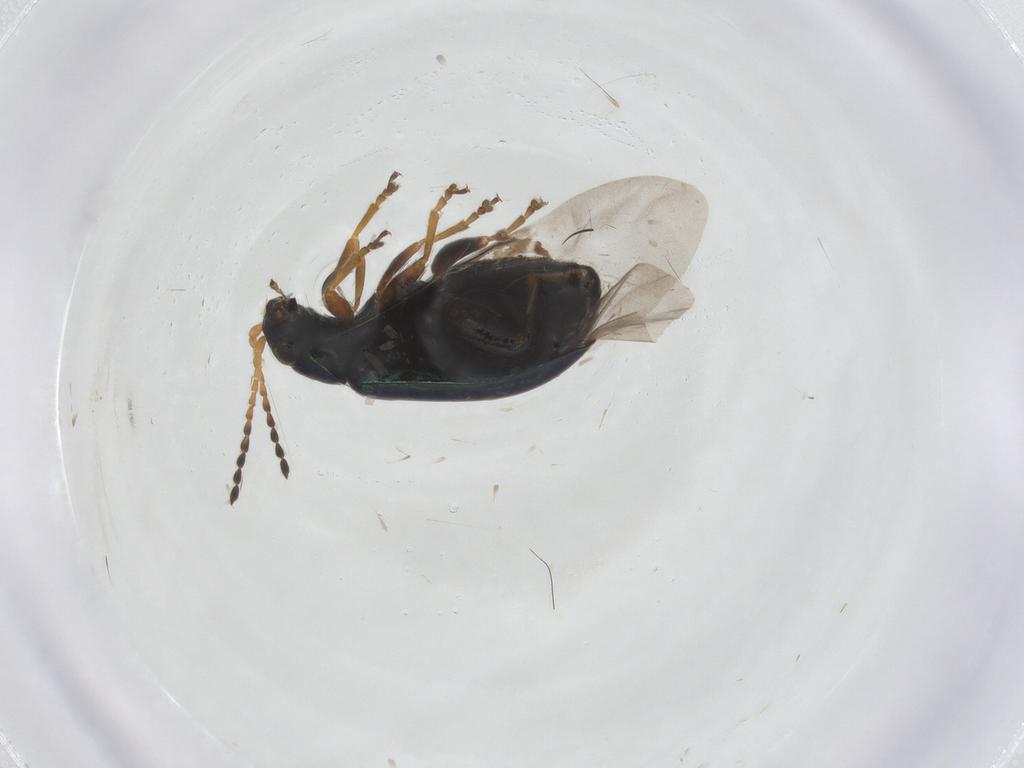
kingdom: Animalia
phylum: Arthropoda
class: Insecta
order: Coleoptera
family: Chrysomelidae
